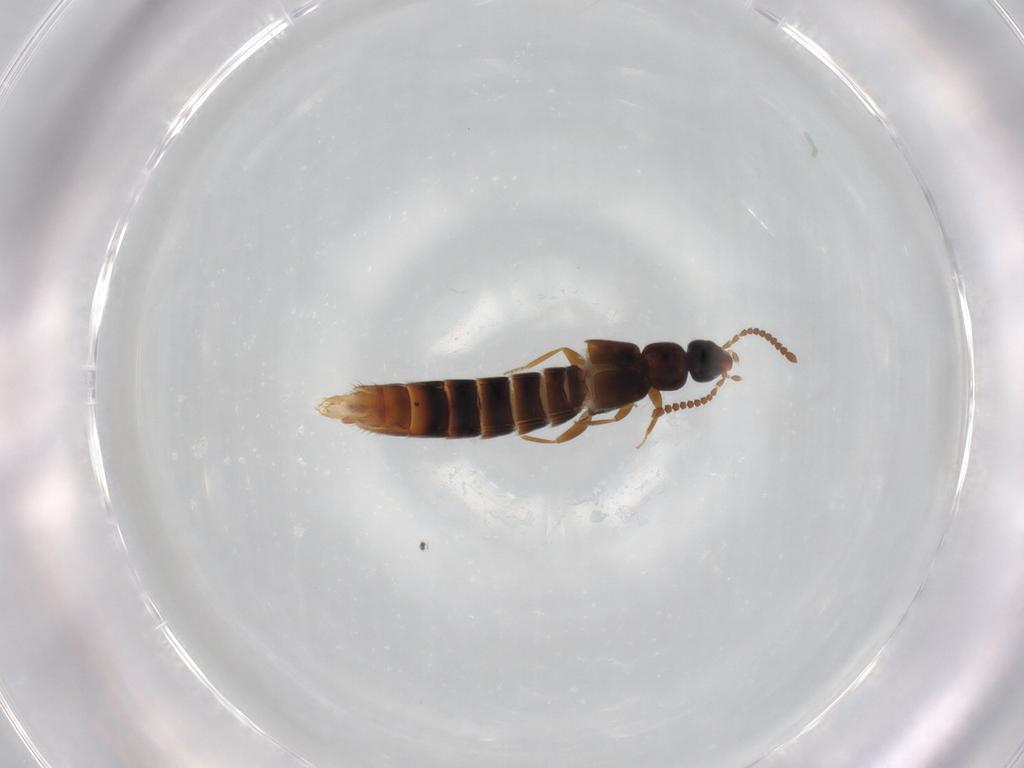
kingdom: Animalia
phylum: Arthropoda
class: Insecta
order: Coleoptera
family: Staphylinidae
